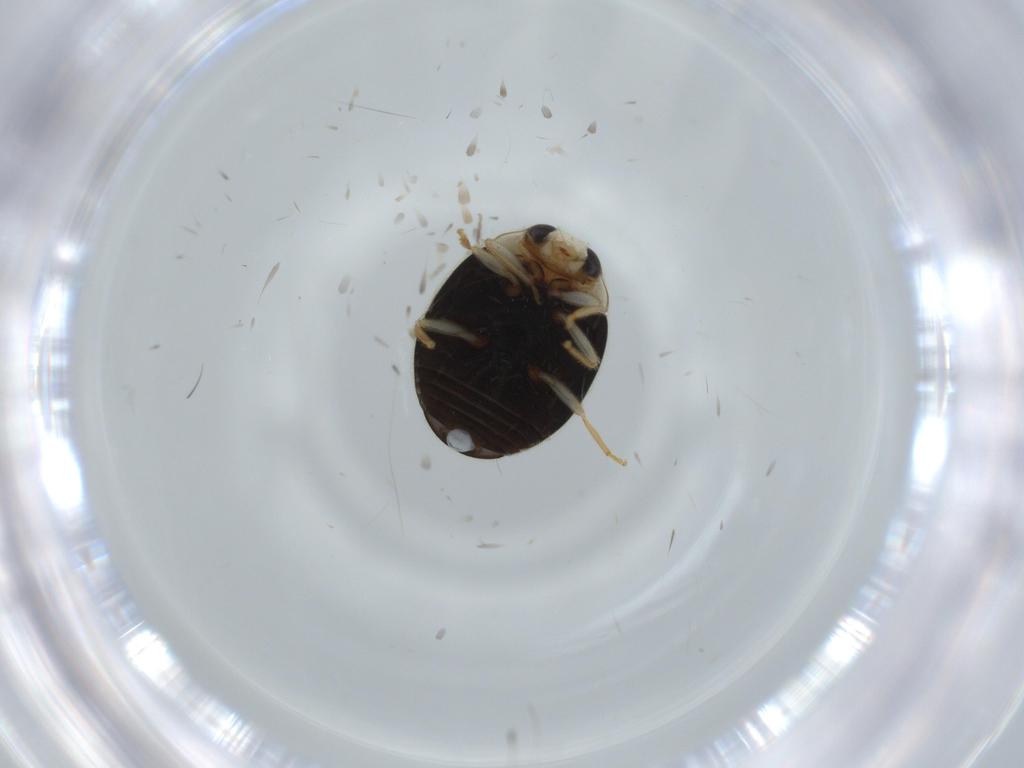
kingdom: Animalia
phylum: Arthropoda
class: Insecta
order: Coleoptera
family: Coccinellidae
